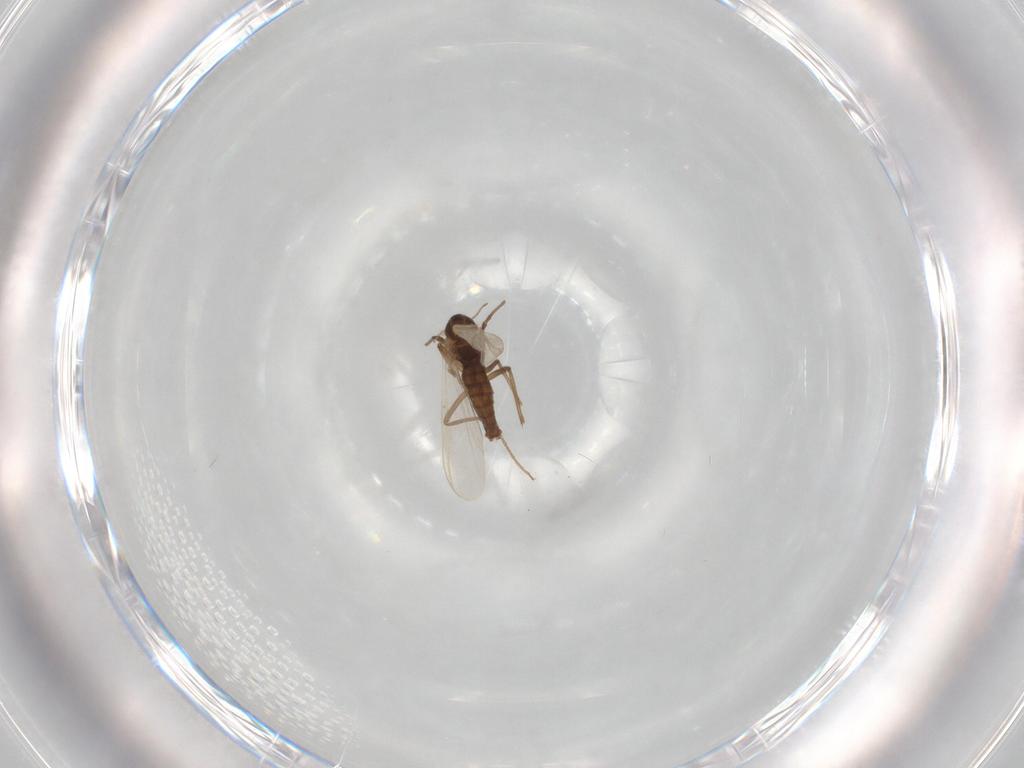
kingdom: Animalia
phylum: Arthropoda
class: Insecta
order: Diptera
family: Chironomidae
